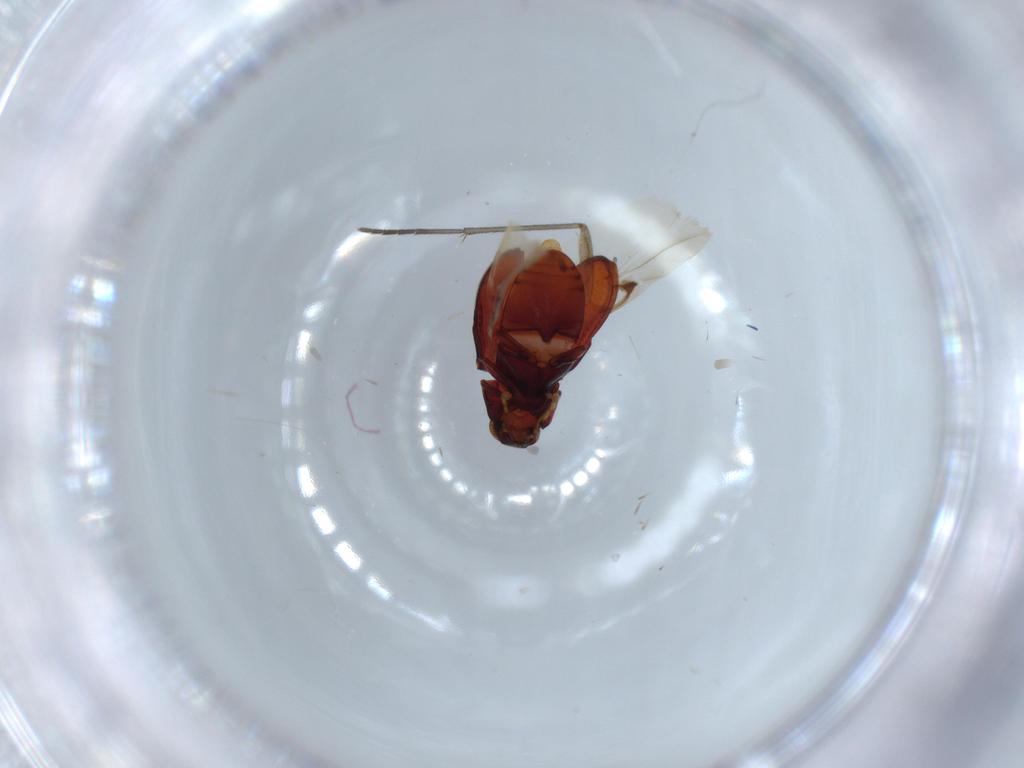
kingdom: Animalia
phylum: Arthropoda
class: Insecta
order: Coleoptera
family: Ptinidae
